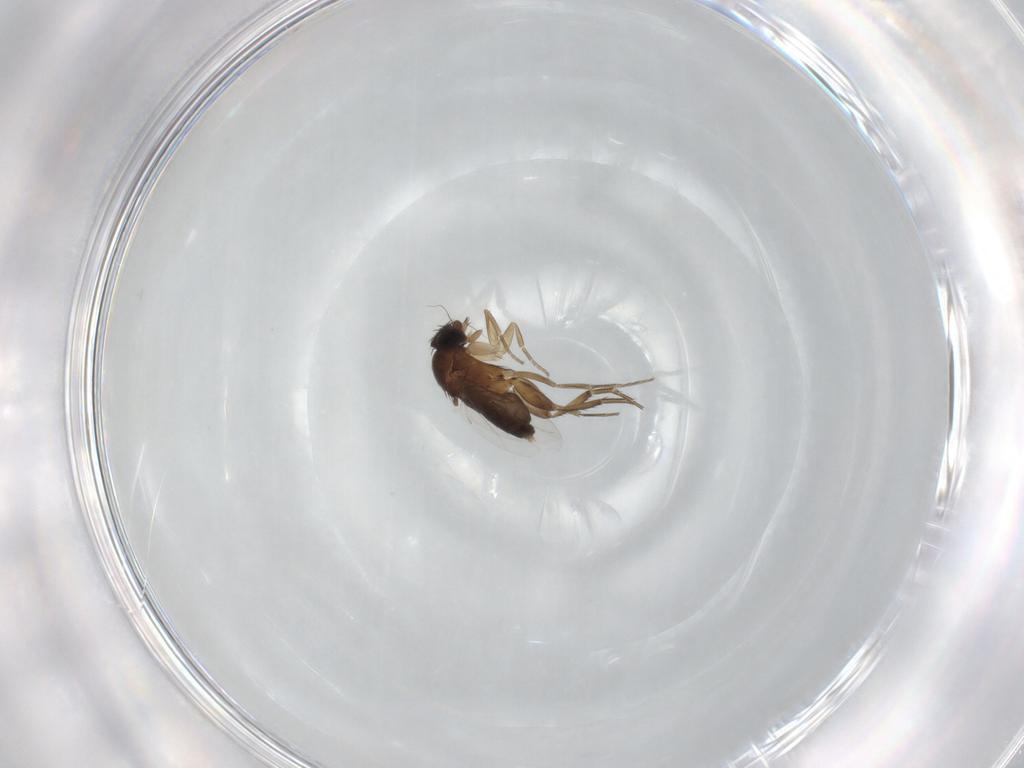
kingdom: Animalia
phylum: Arthropoda
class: Insecta
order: Diptera
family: Phoridae
